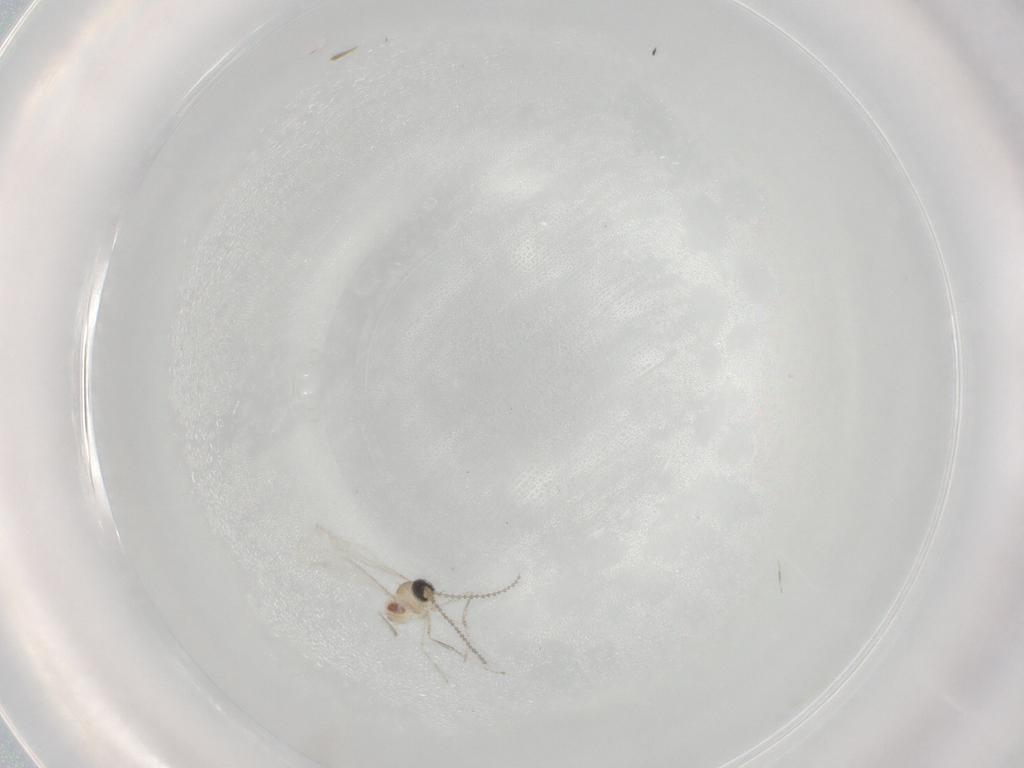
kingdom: Animalia
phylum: Arthropoda
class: Insecta
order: Diptera
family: Cecidomyiidae
